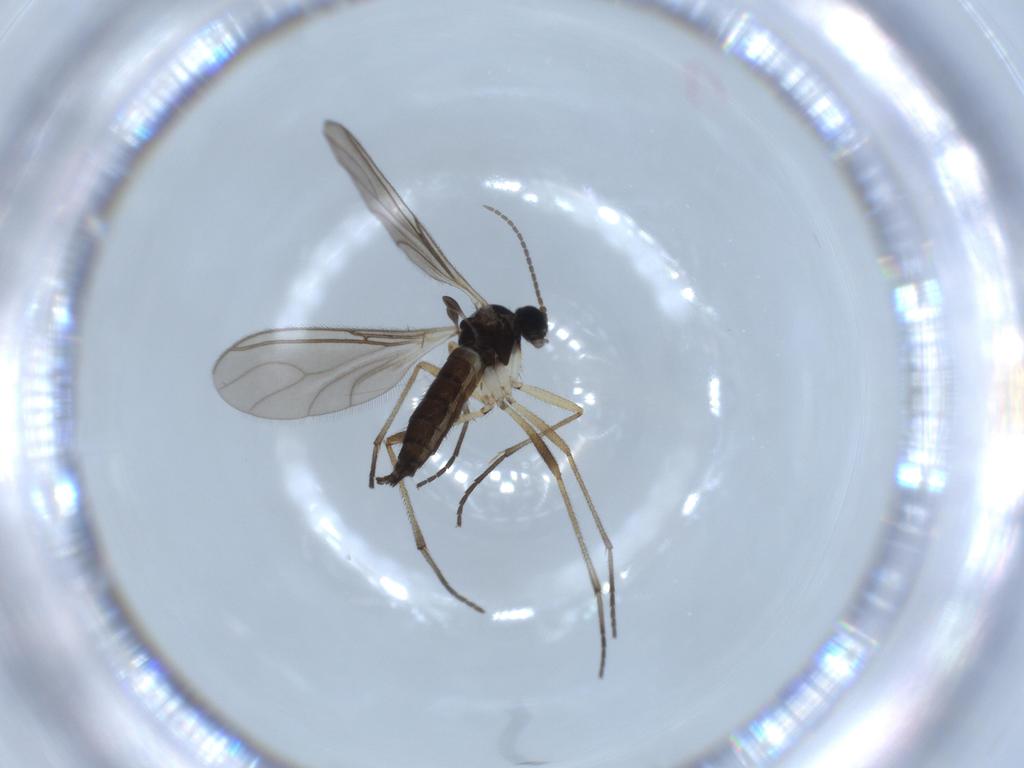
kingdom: Animalia
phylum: Arthropoda
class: Insecta
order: Diptera
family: Sciaridae
